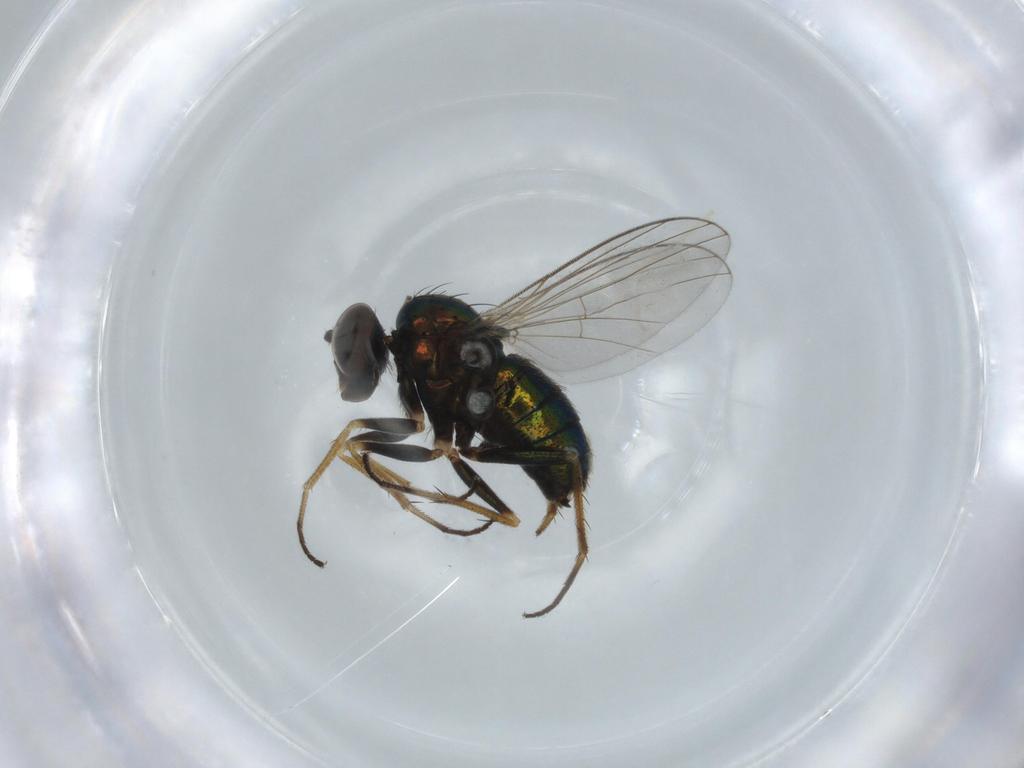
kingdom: Animalia
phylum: Arthropoda
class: Insecta
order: Diptera
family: Dolichopodidae
